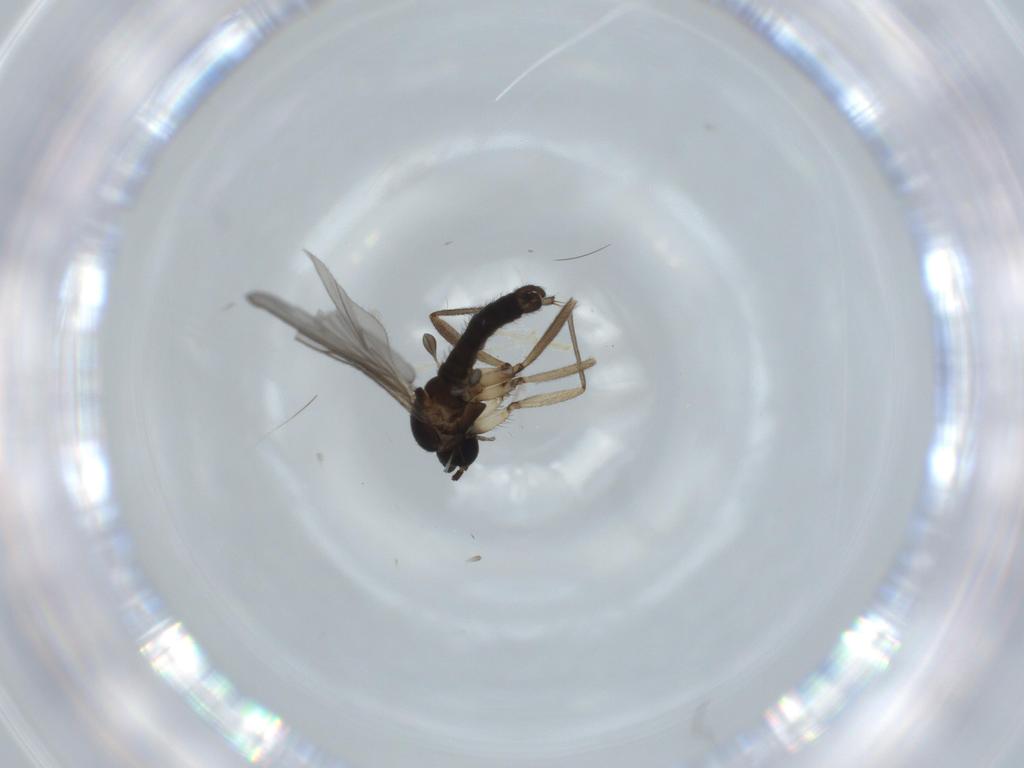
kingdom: Animalia
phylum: Arthropoda
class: Insecta
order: Diptera
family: Sciaridae
